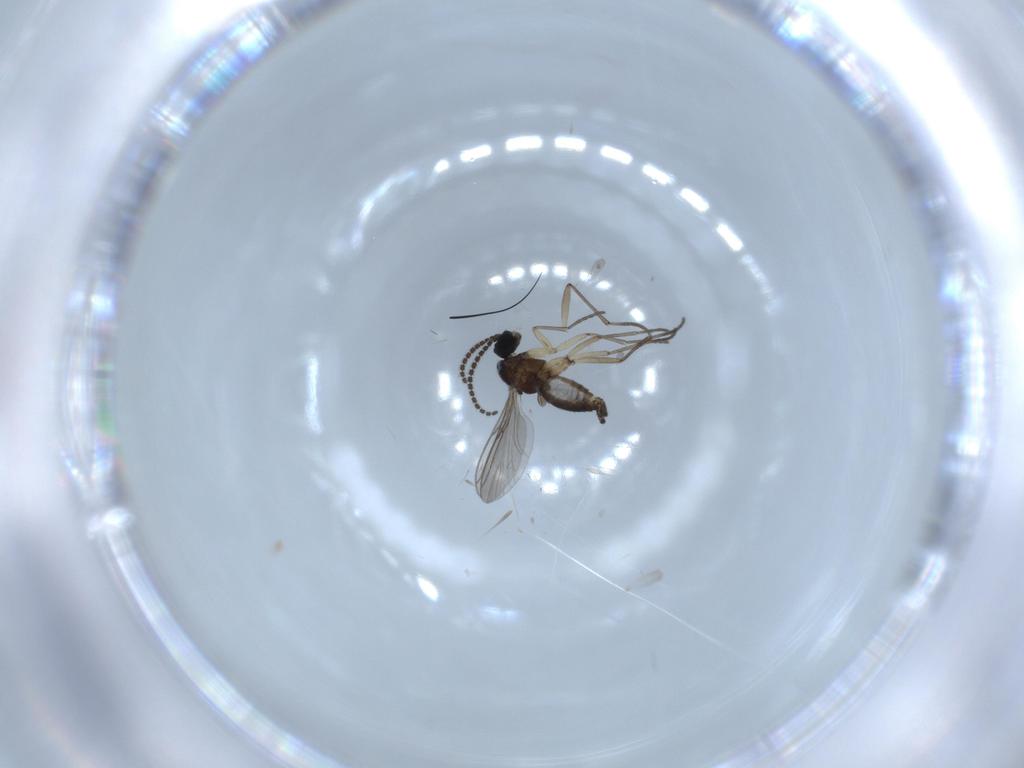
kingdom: Animalia
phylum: Arthropoda
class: Insecta
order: Diptera
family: Sciaridae
